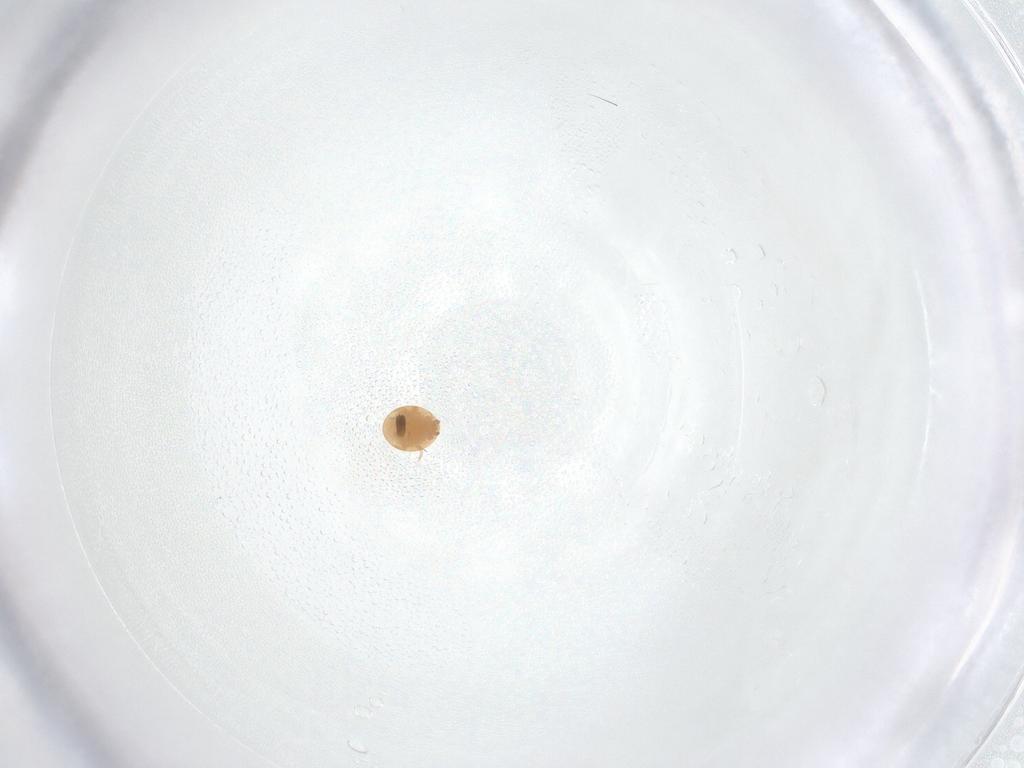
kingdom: Animalia
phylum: Arthropoda
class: Arachnida
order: Mesostigmata
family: Trematuridae
